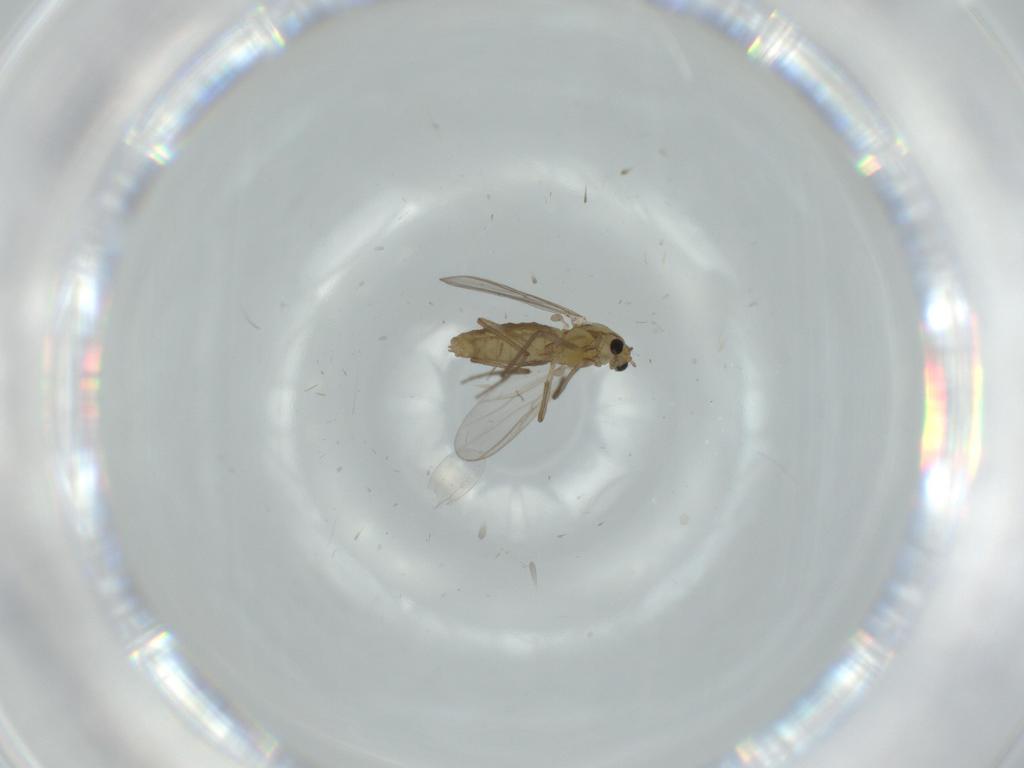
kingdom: Animalia
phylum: Arthropoda
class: Insecta
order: Diptera
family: Chironomidae
